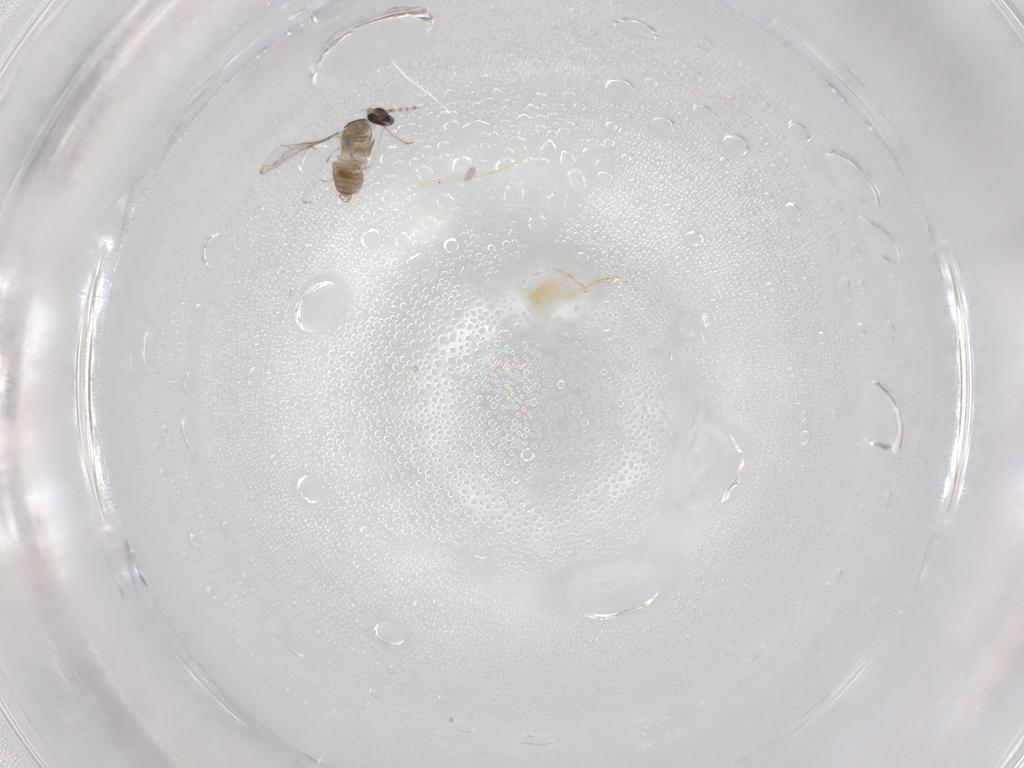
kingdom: Animalia
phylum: Arthropoda
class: Insecta
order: Diptera
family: Cecidomyiidae
